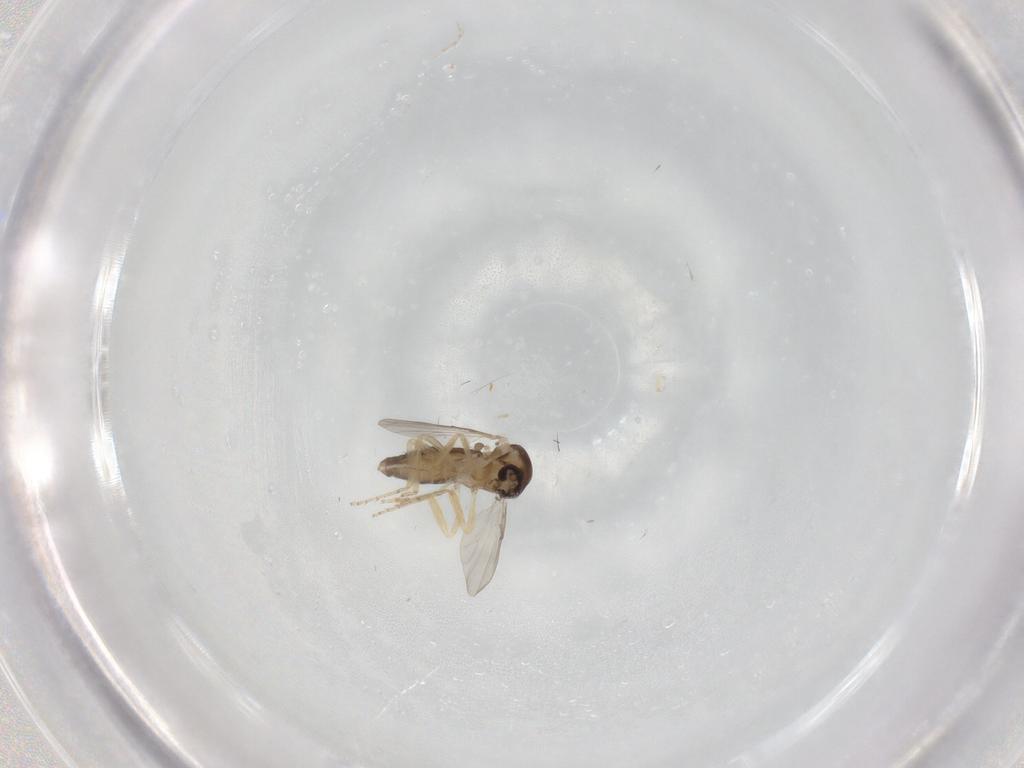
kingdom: Animalia
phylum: Arthropoda
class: Insecta
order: Diptera
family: Ceratopogonidae
